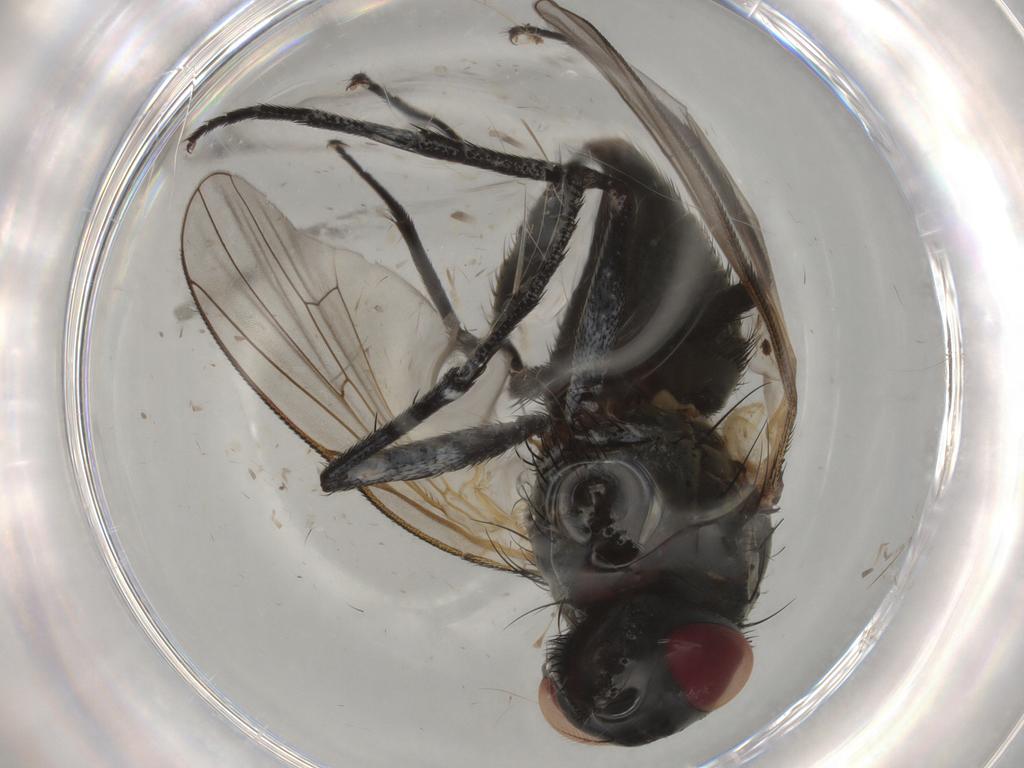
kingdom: Animalia
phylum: Arthropoda
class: Insecta
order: Diptera
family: Muscidae
